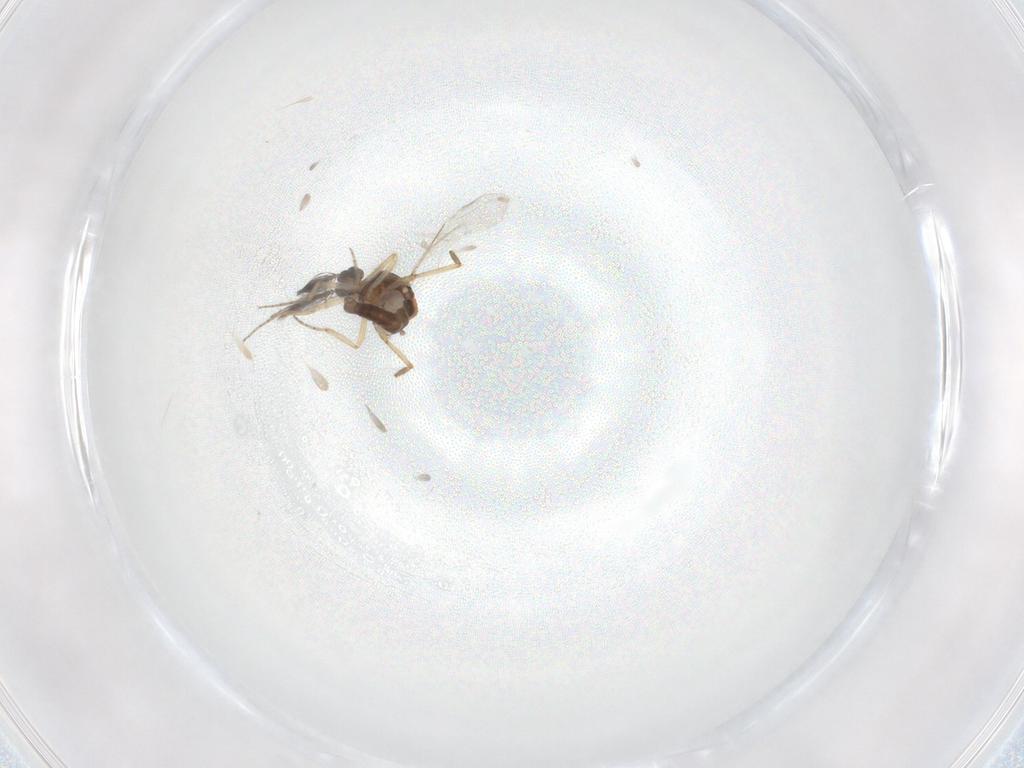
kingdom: Animalia
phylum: Arthropoda
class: Insecta
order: Diptera
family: Ceratopogonidae
